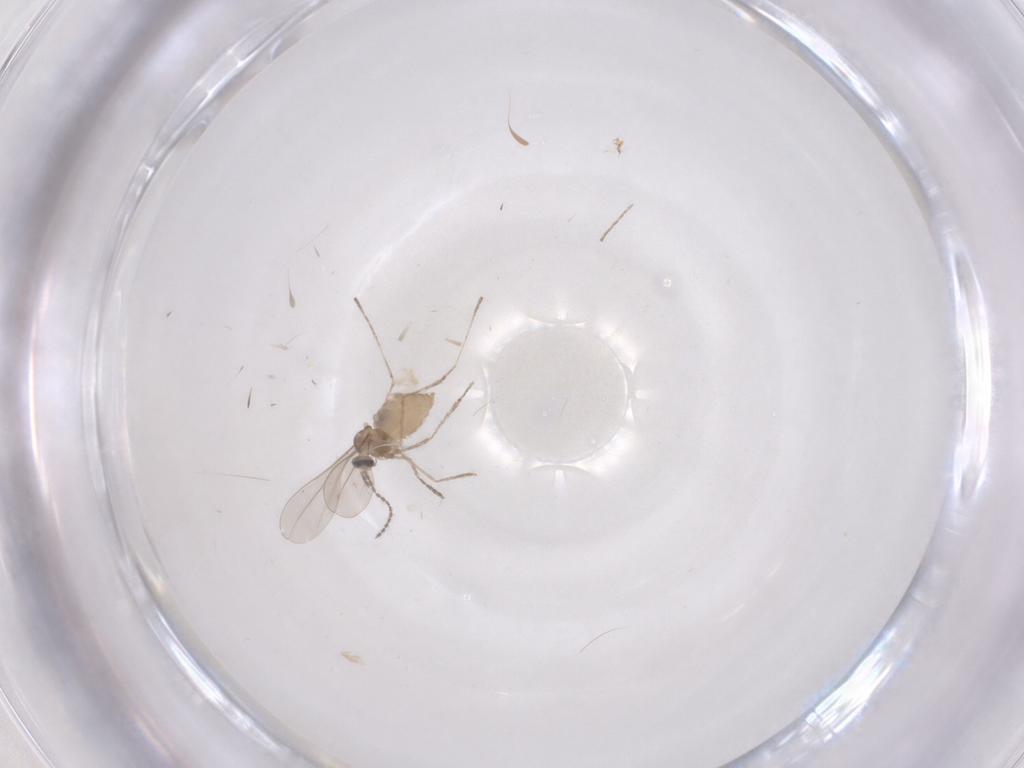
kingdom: Animalia
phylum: Arthropoda
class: Insecta
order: Diptera
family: Cecidomyiidae
